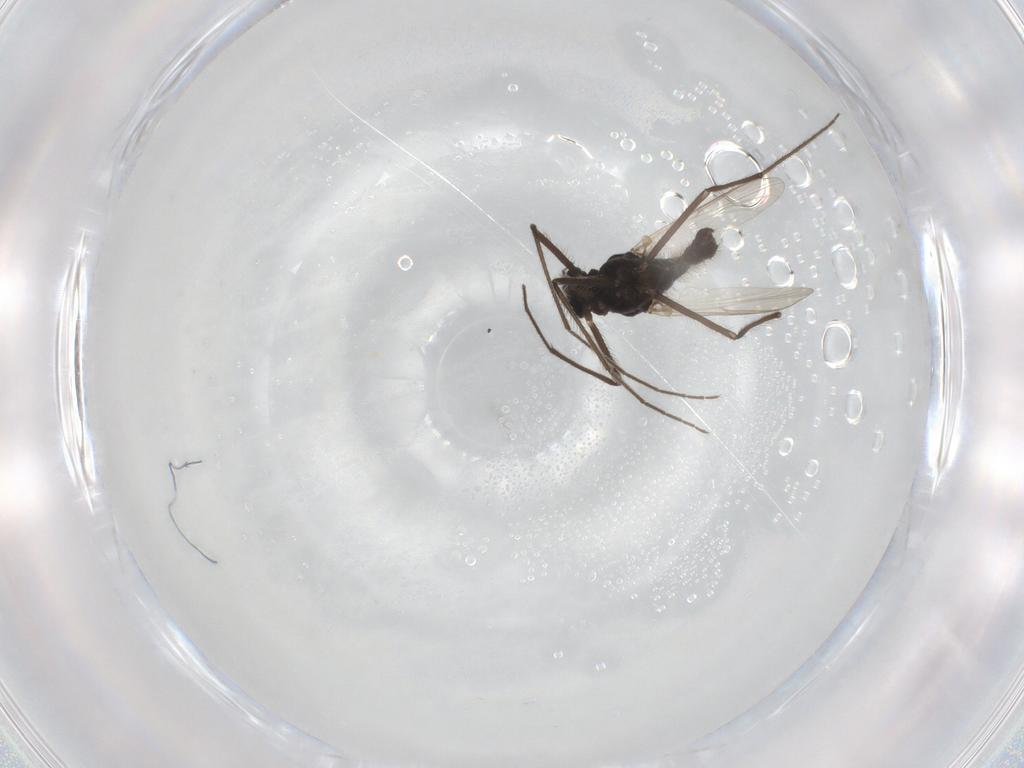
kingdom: Animalia
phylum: Arthropoda
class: Insecta
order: Diptera
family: Chironomidae
